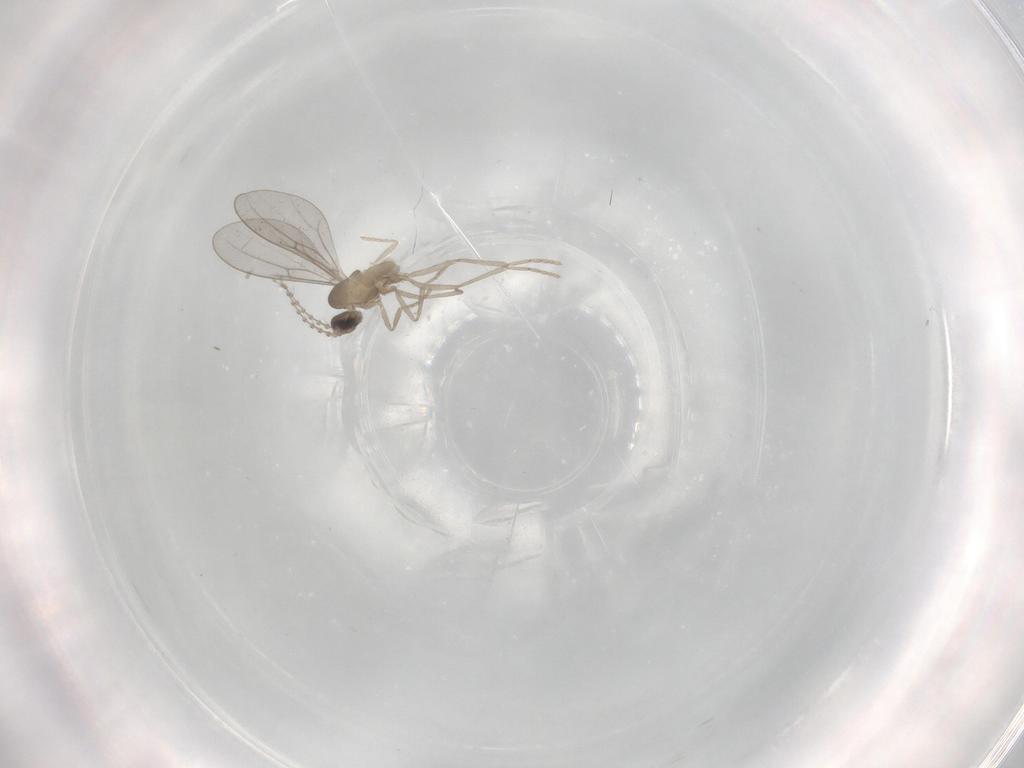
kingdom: Animalia
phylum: Arthropoda
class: Insecta
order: Diptera
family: Cecidomyiidae
